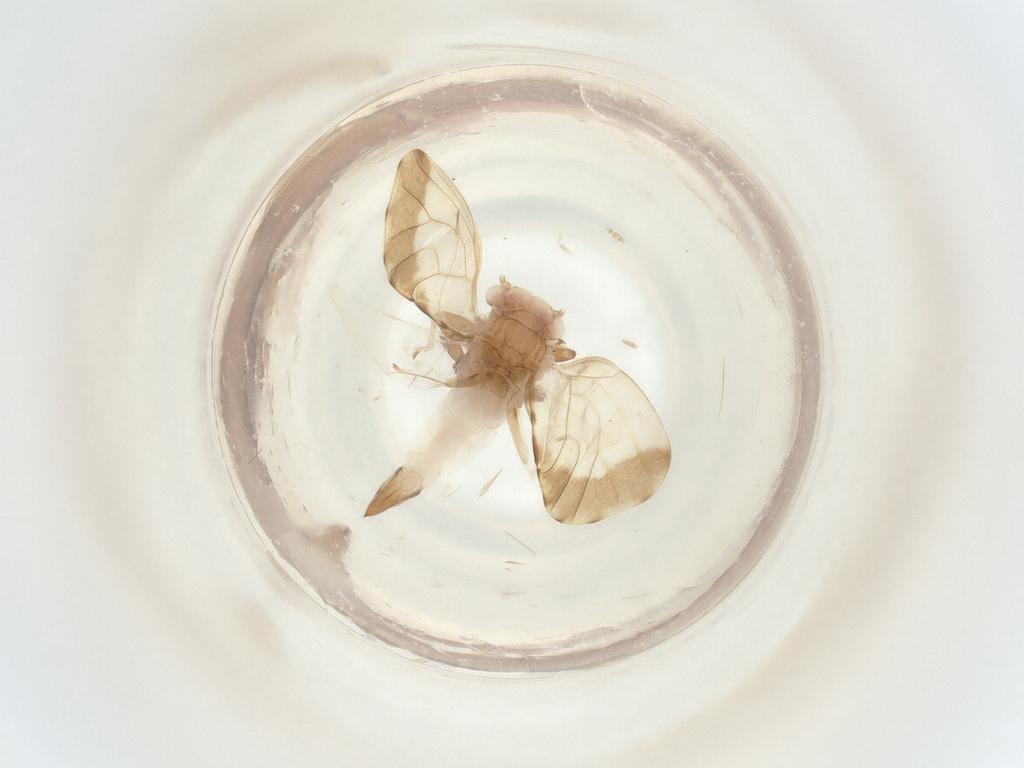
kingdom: Animalia
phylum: Arthropoda
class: Insecta
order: Diptera
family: Psychodidae
